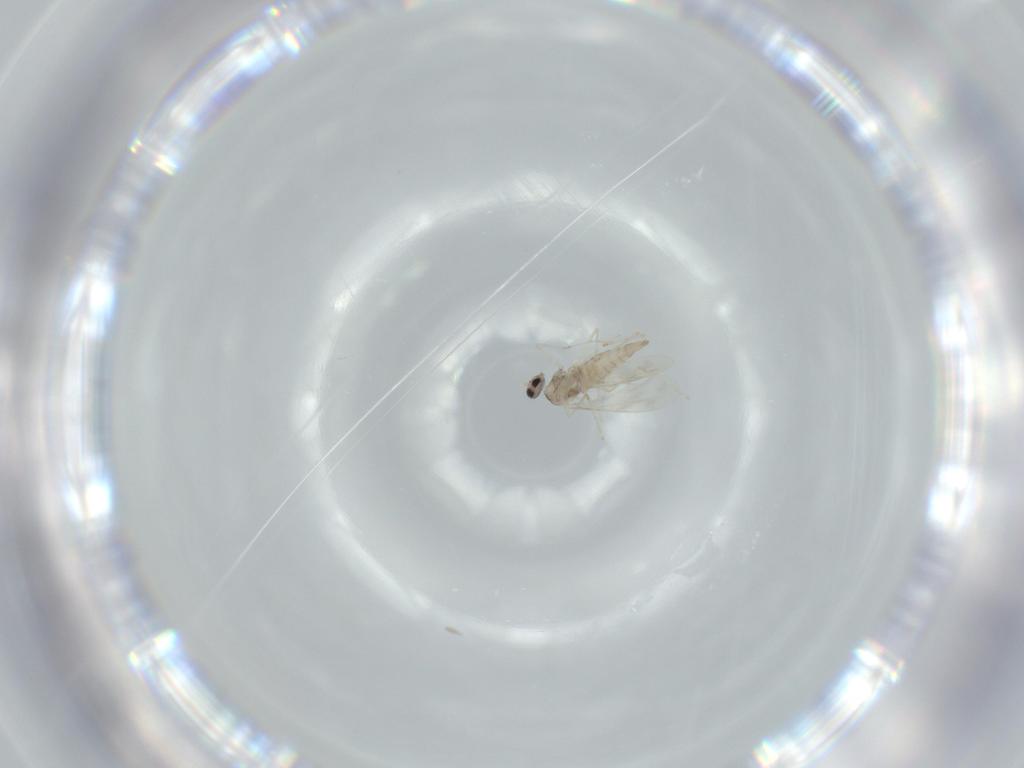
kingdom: Animalia
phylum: Arthropoda
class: Insecta
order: Diptera
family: Cecidomyiidae
